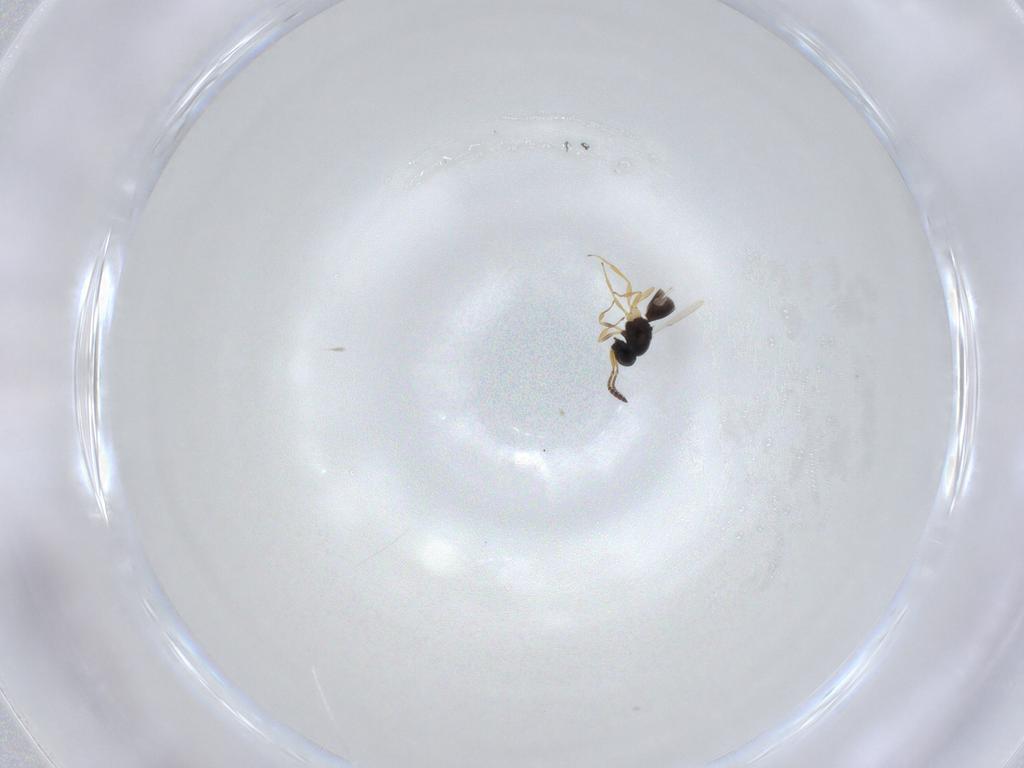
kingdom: Animalia
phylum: Arthropoda
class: Insecta
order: Hymenoptera
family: Scelionidae
